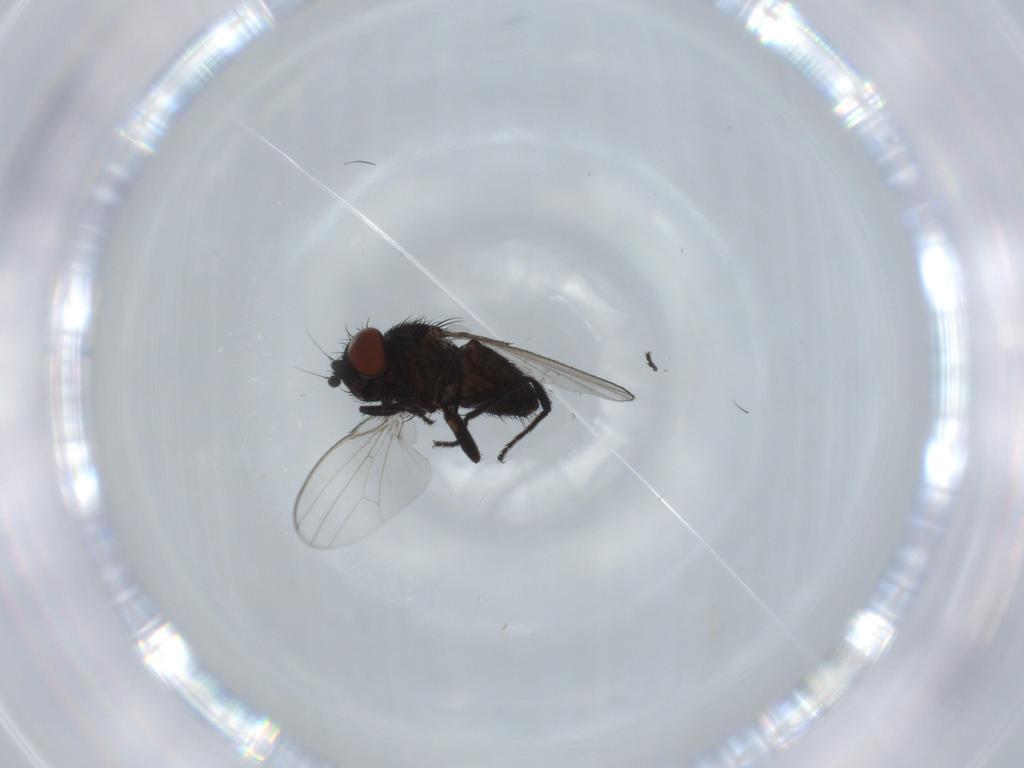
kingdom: Animalia
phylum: Arthropoda
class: Insecta
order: Diptera
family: Milichiidae
